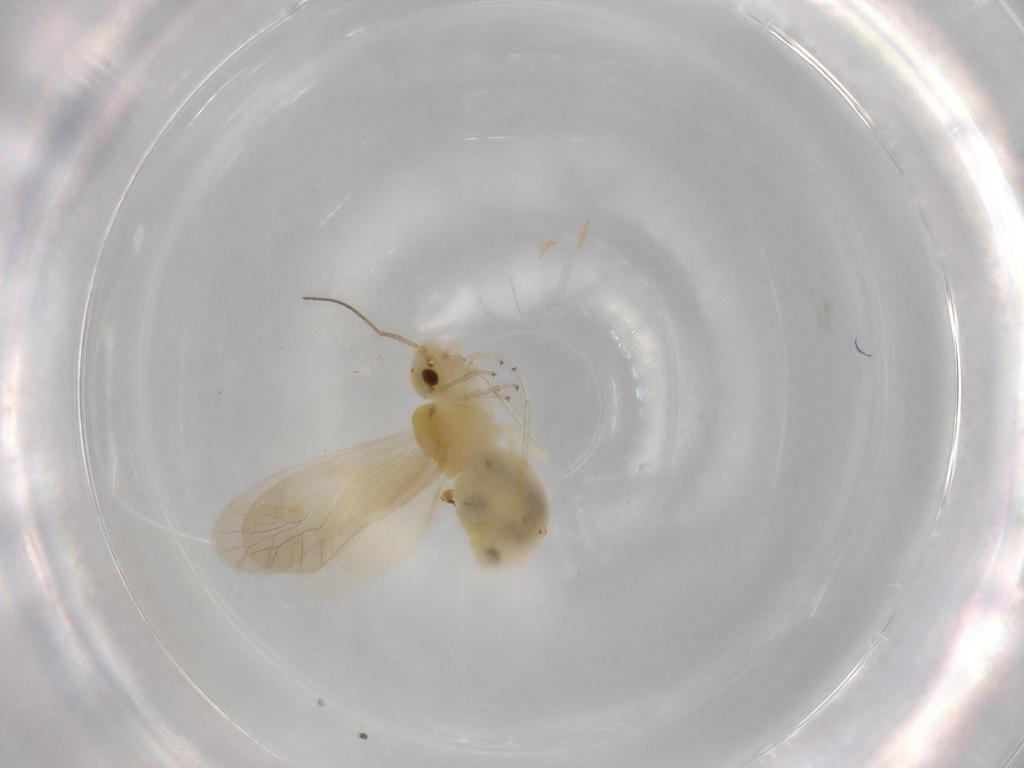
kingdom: Animalia
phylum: Arthropoda
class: Insecta
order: Psocodea
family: Caeciliusidae
